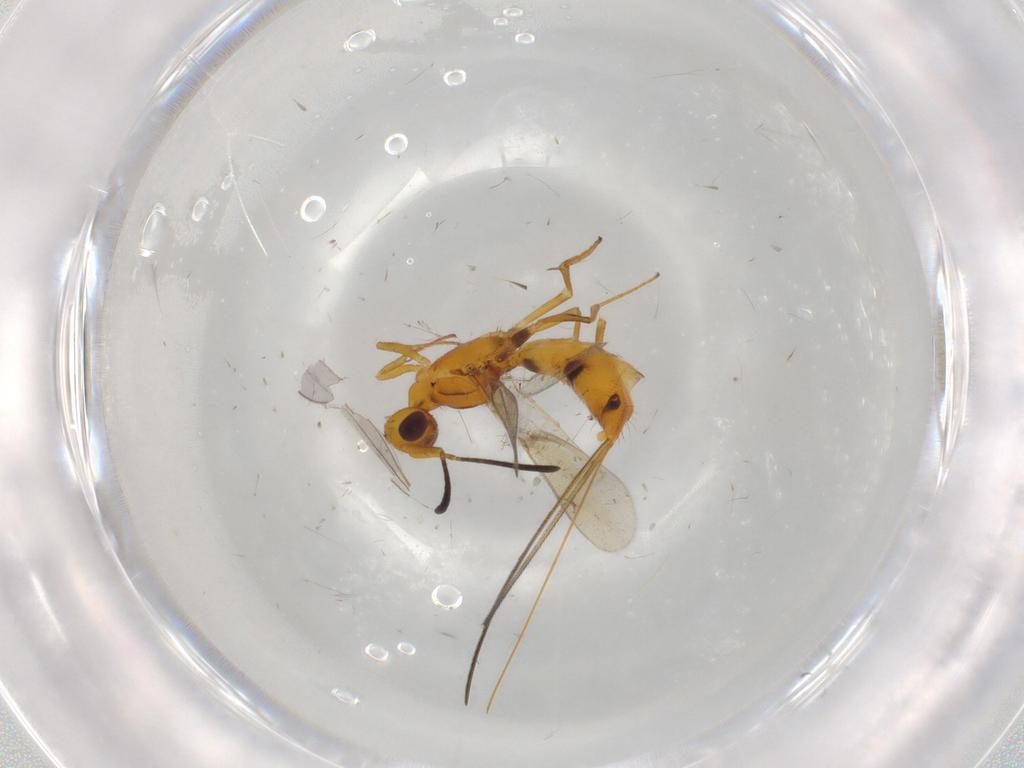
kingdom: Animalia
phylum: Arthropoda
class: Insecta
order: Hymenoptera
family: Eupelmidae
